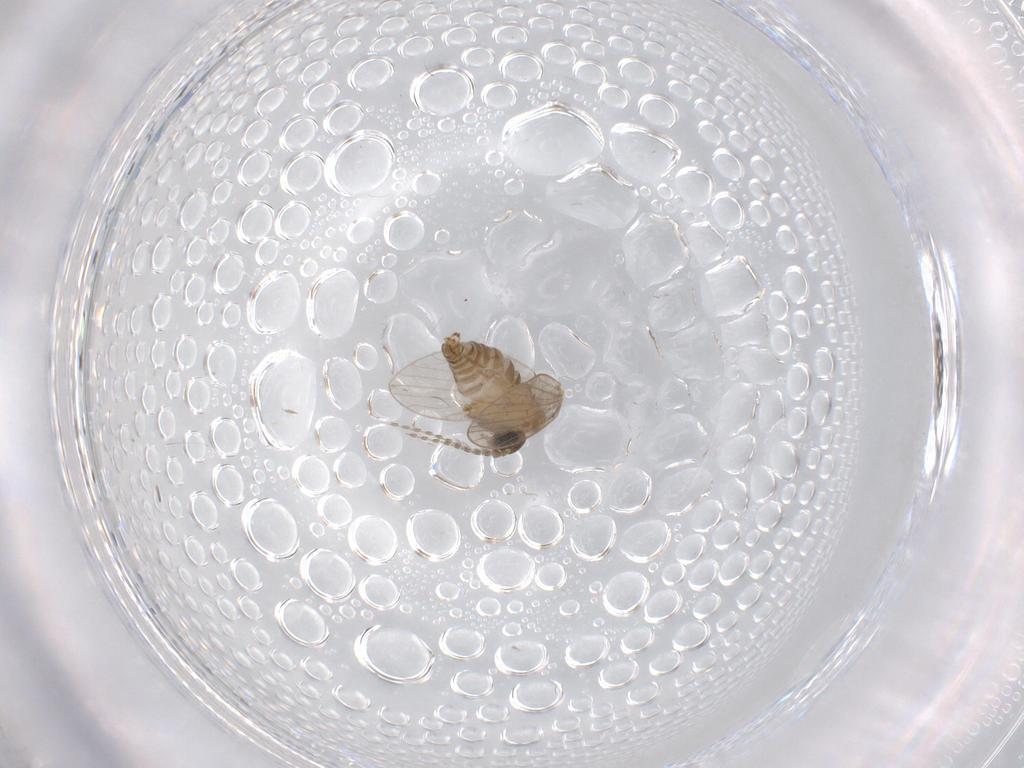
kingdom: Animalia
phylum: Arthropoda
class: Insecta
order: Diptera
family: Psychodidae
